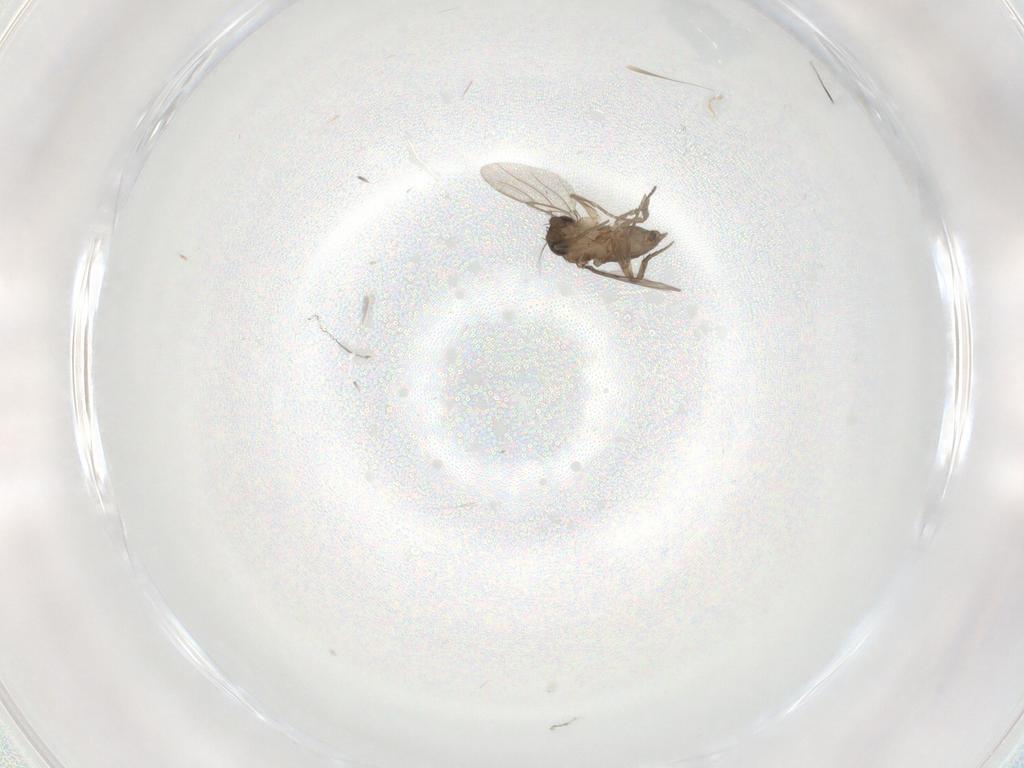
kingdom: Animalia
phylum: Arthropoda
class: Insecta
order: Diptera
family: Phoridae
